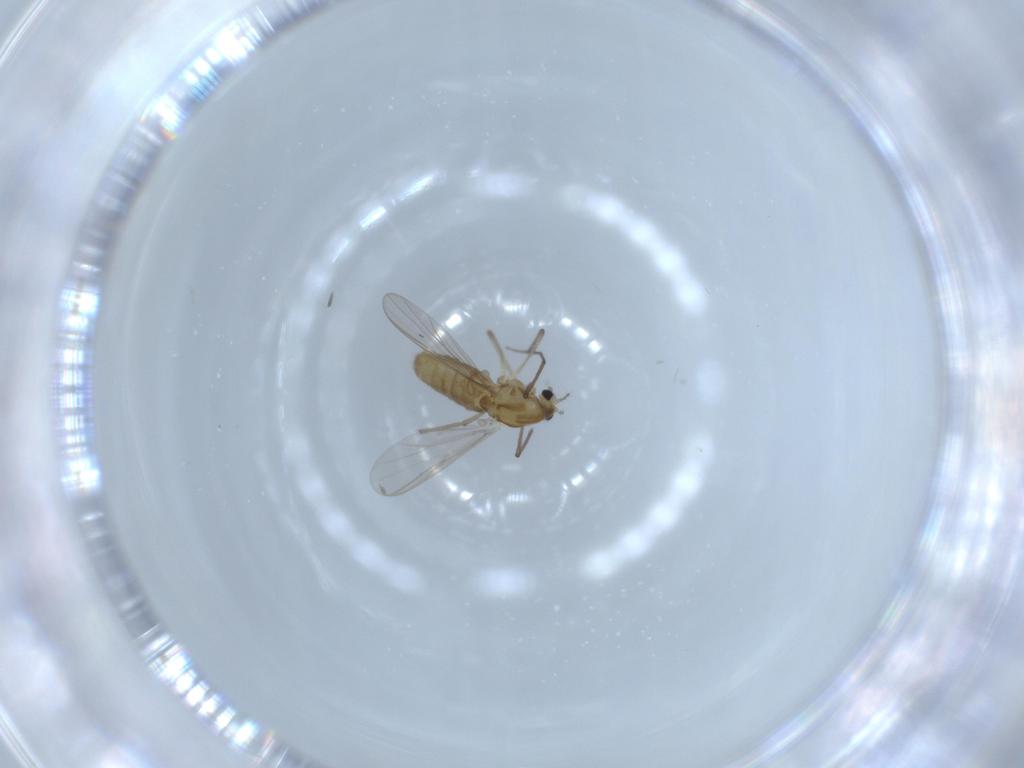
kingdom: Animalia
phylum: Arthropoda
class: Insecta
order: Diptera
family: Chironomidae
